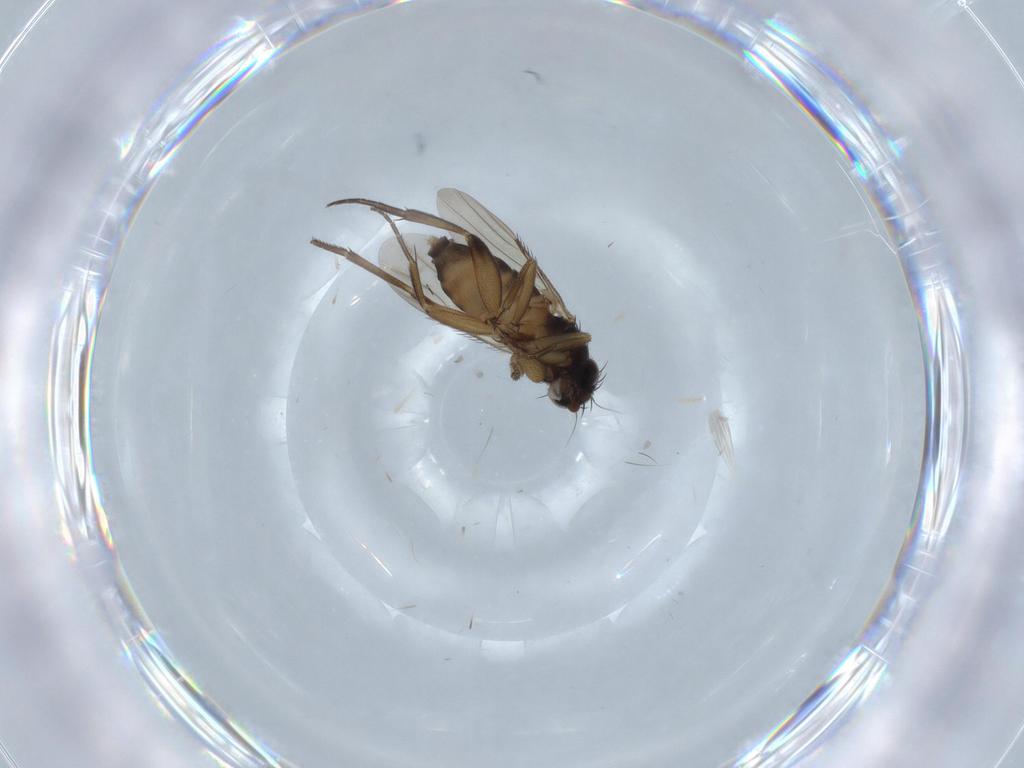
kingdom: Animalia
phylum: Arthropoda
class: Insecta
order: Diptera
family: Phoridae
